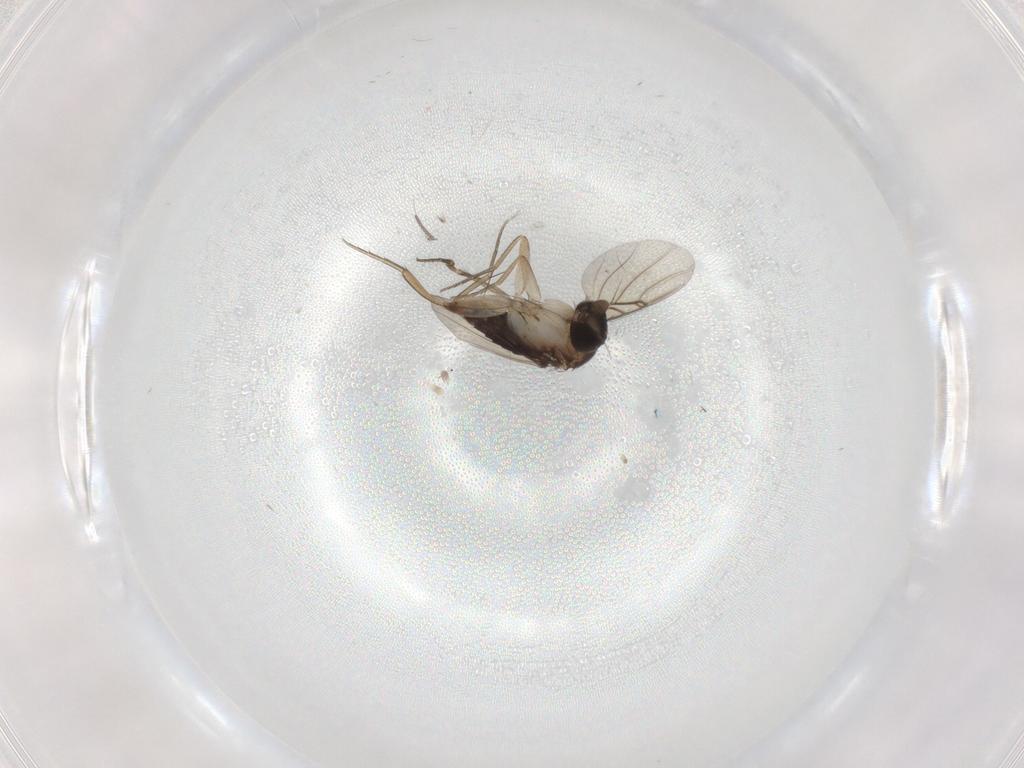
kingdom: Animalia
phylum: Arthropoda
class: Insecta
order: Diptera
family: Phoridae
